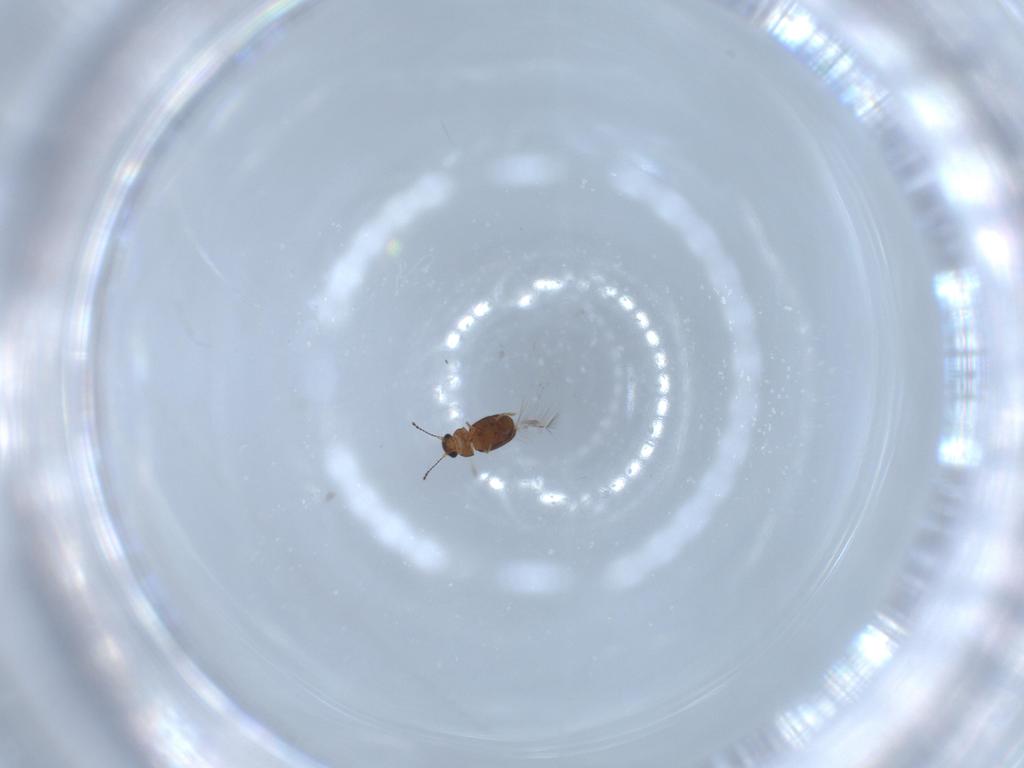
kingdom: Animalia
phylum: Arthropoda
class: Insecta
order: Coleoptera
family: Ptiliidae
